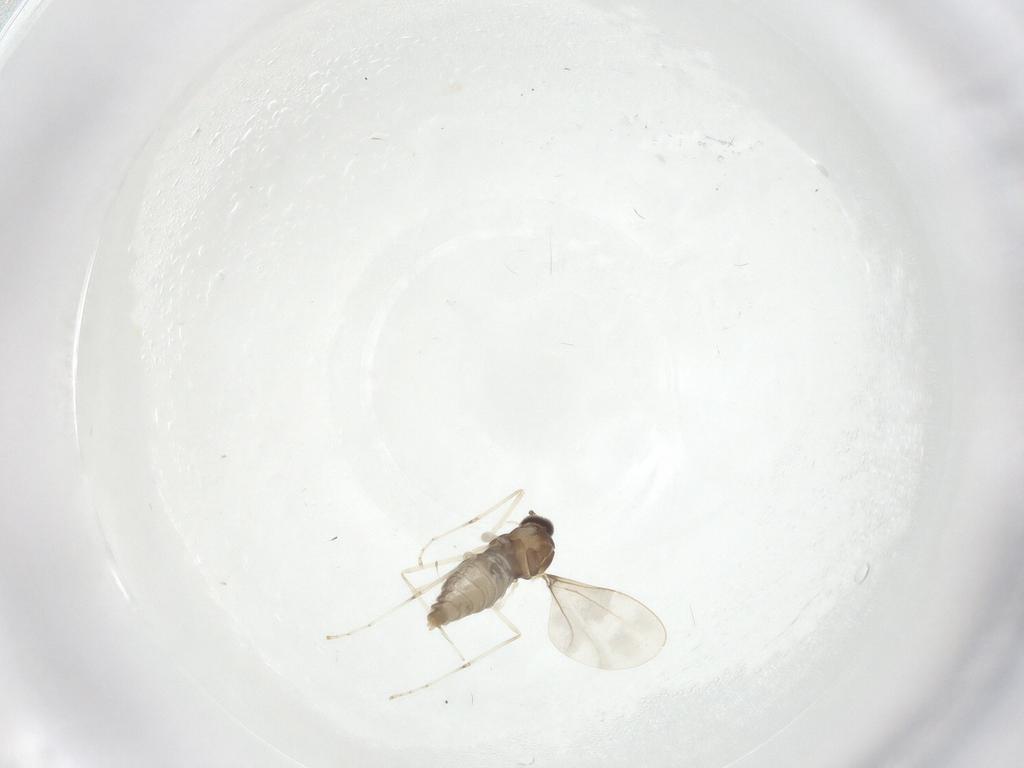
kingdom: Animalia
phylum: Arthropoda
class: Insecta
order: Diptera
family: Cecidomyiidae
